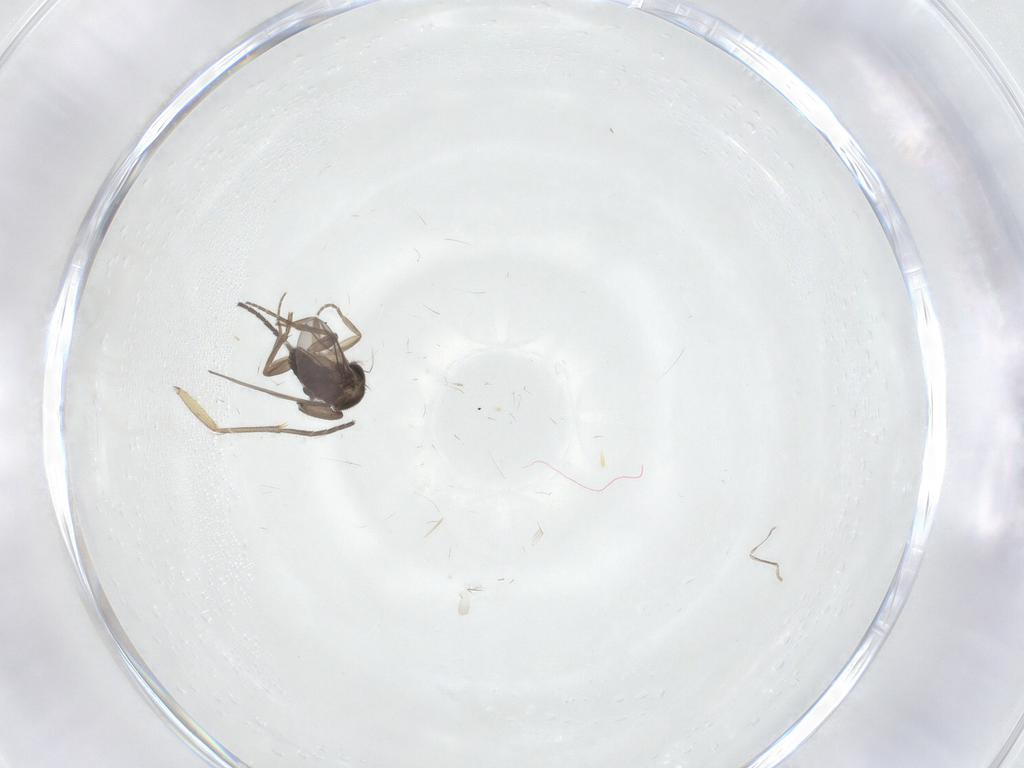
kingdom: Animalia
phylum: Arthropoda
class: Insecta
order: Diptera
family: Sciaridae
